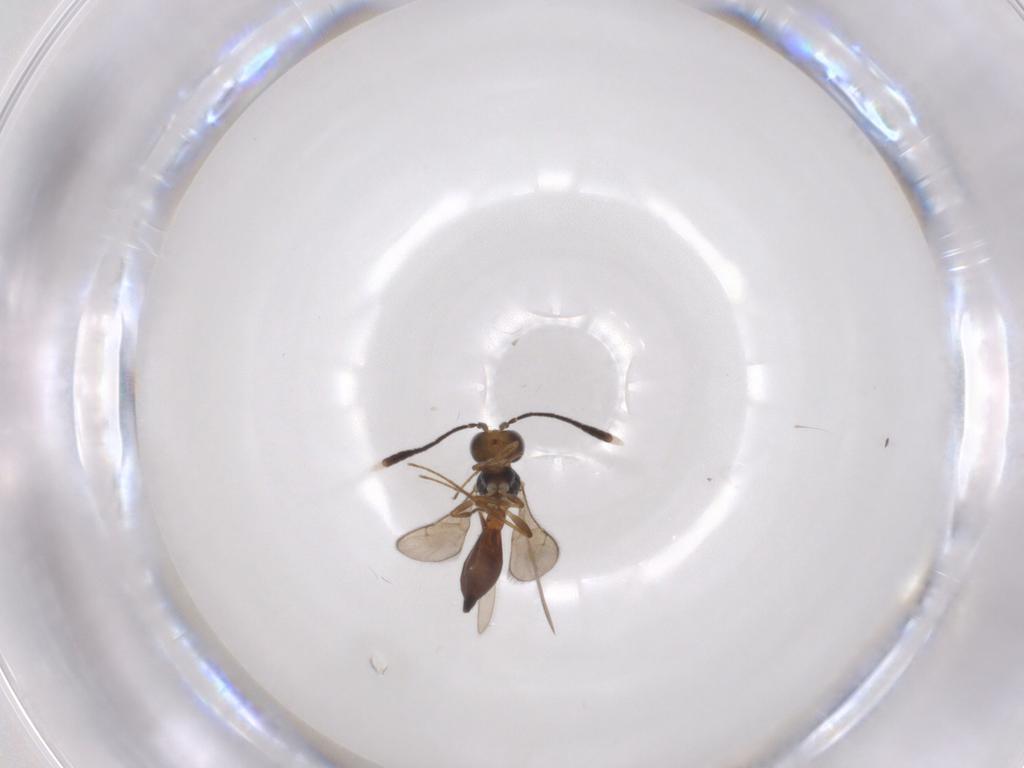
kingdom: Animalia
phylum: Arthropoda
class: Insecta
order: Hymenoptera
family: Scelionidae
